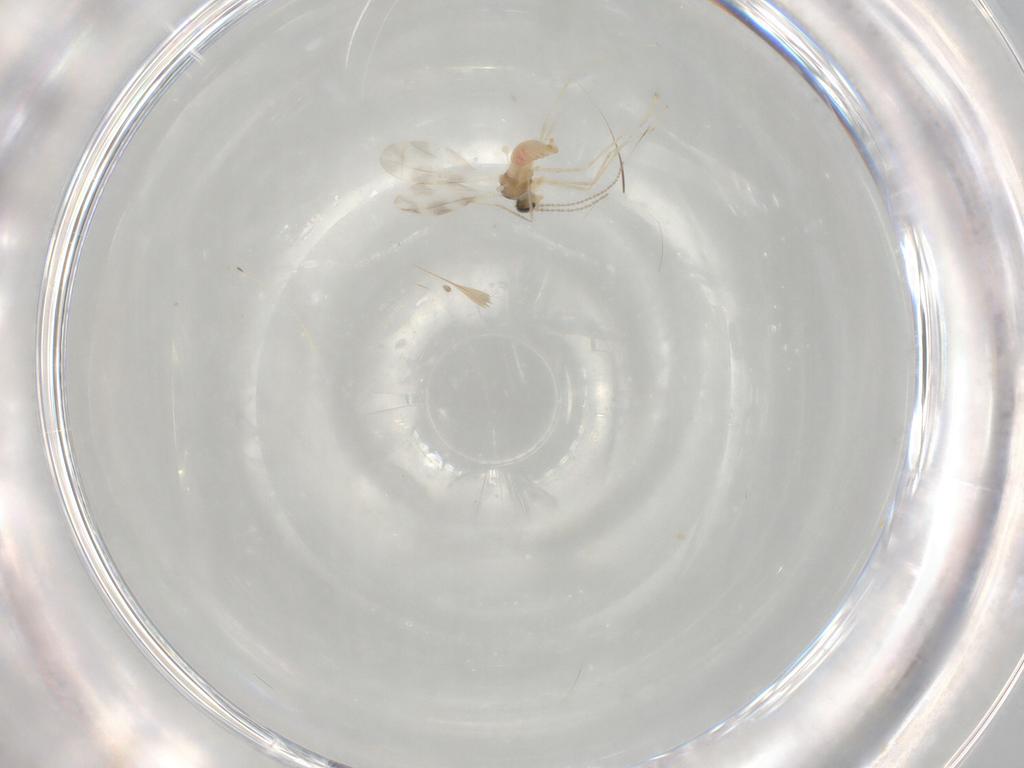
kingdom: Animalia
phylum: Arthropoda
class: Insecta
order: Diptera
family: Cecidomyiidae
